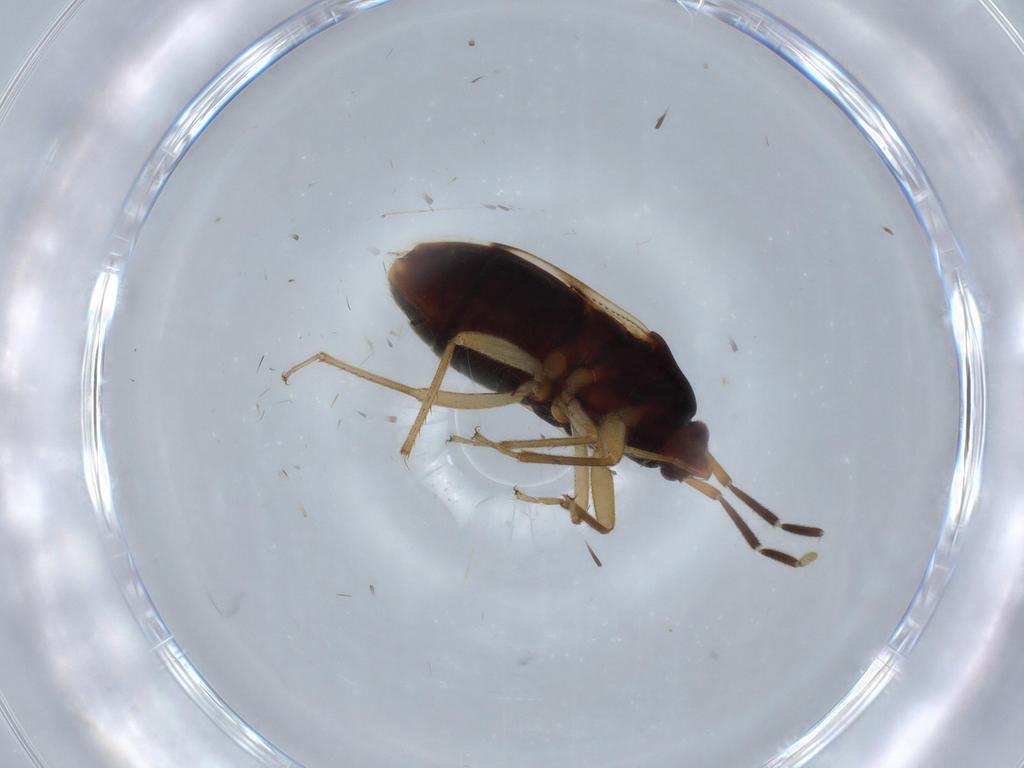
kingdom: Animalia
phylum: Arthropoda
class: Insecta
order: Hemiptera
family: Rhyparochromidae
